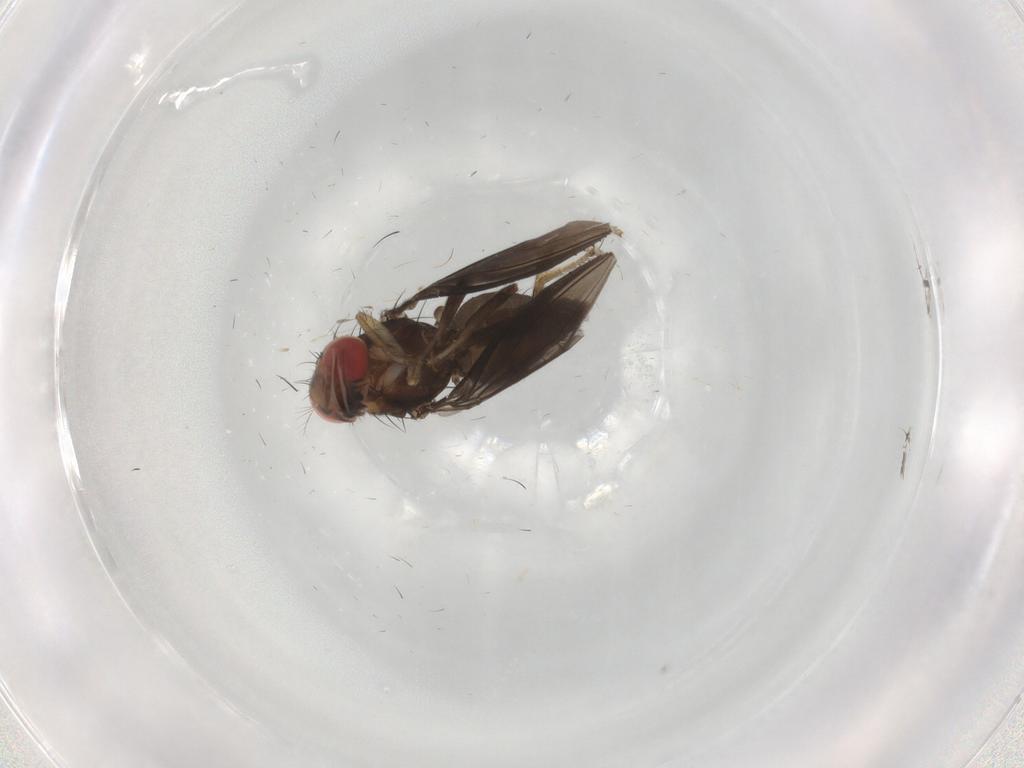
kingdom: Animalia
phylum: Arthropoda
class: Insecta
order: Diptera
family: Drosophilidae
